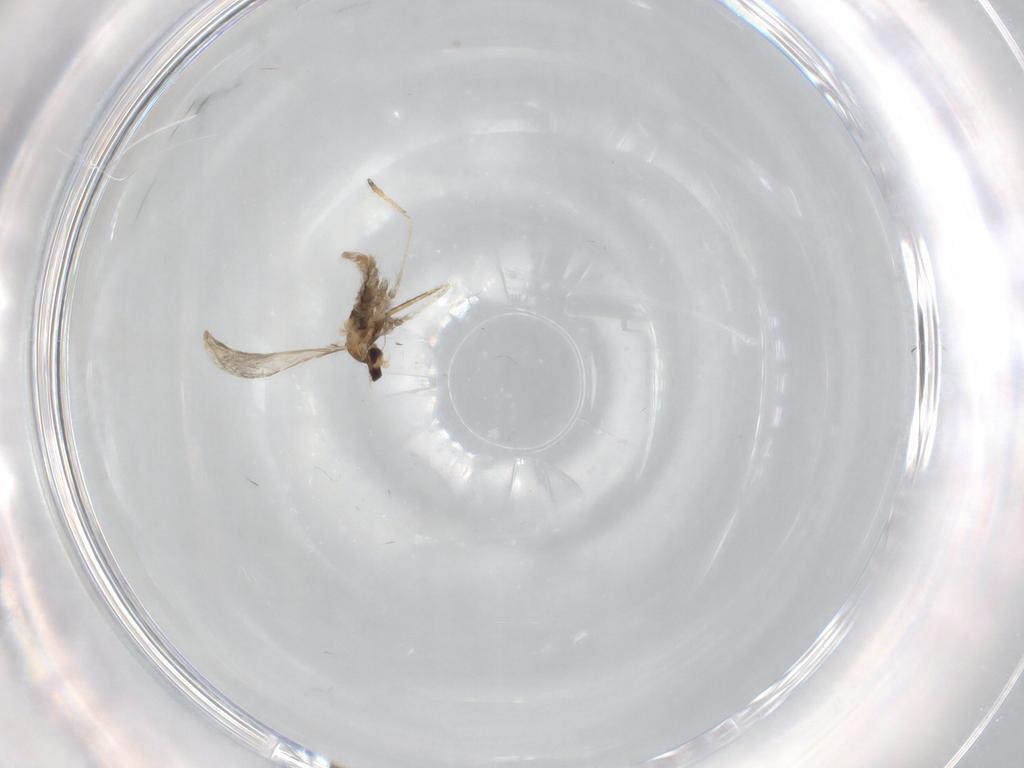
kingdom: Animalia
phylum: Arthropoda
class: Insecta
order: Diptera
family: Cecidomyiidae
